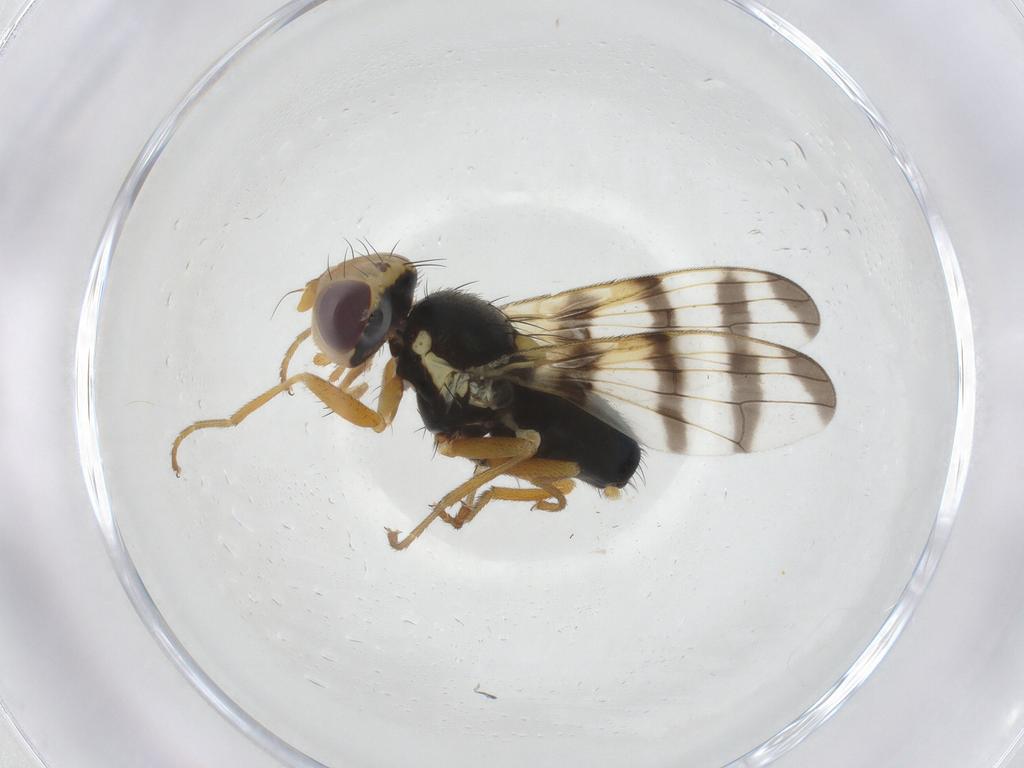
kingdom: Animalia
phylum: Arthropoda
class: Insecta
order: Diptera
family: Tephritidae
